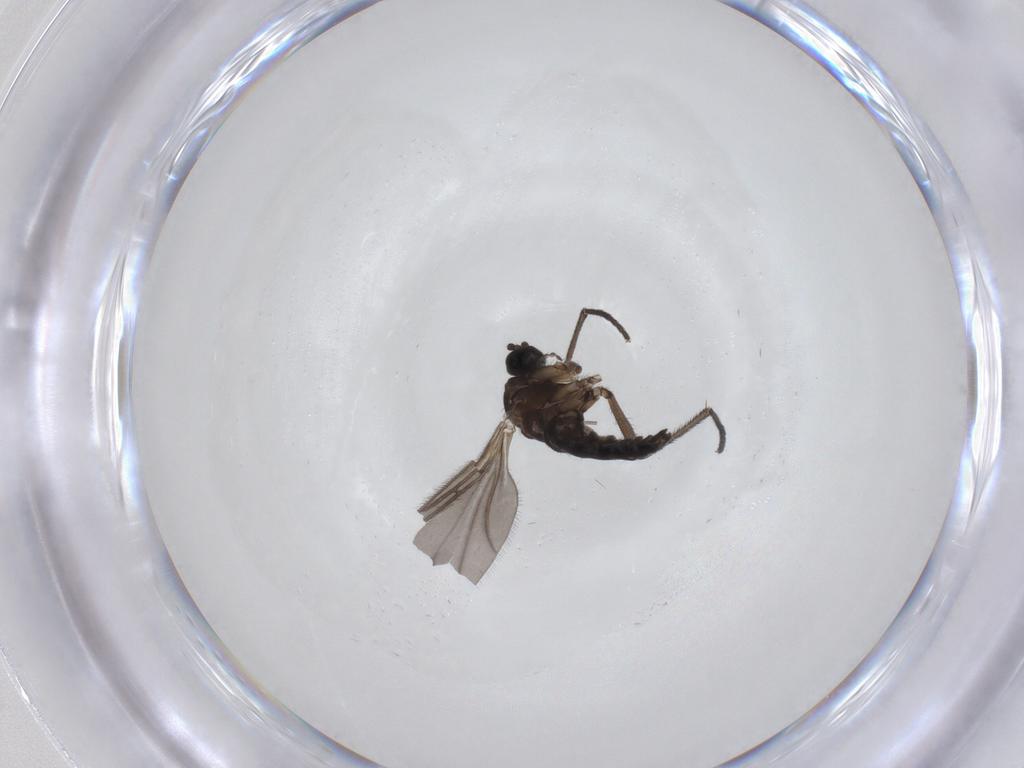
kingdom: Animalia
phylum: Arthropoda
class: Insecta
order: Diptera
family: Sciaridae
